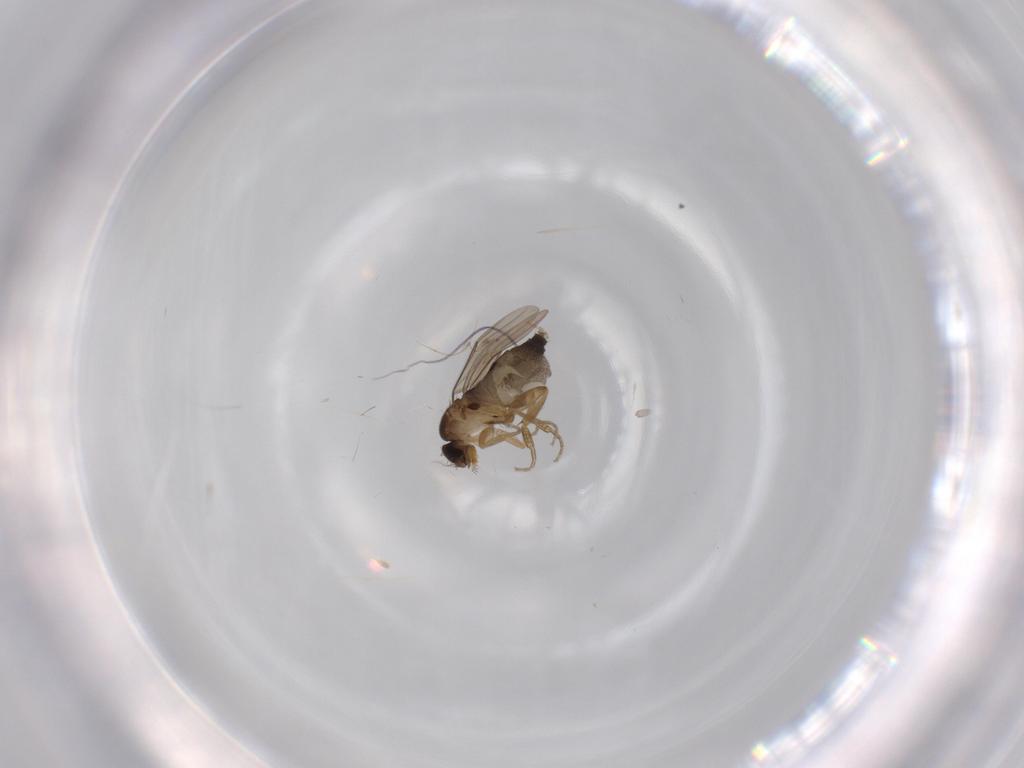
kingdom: Animalia
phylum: Arthropoda
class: Insecta
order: Diptera
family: Phoridae
